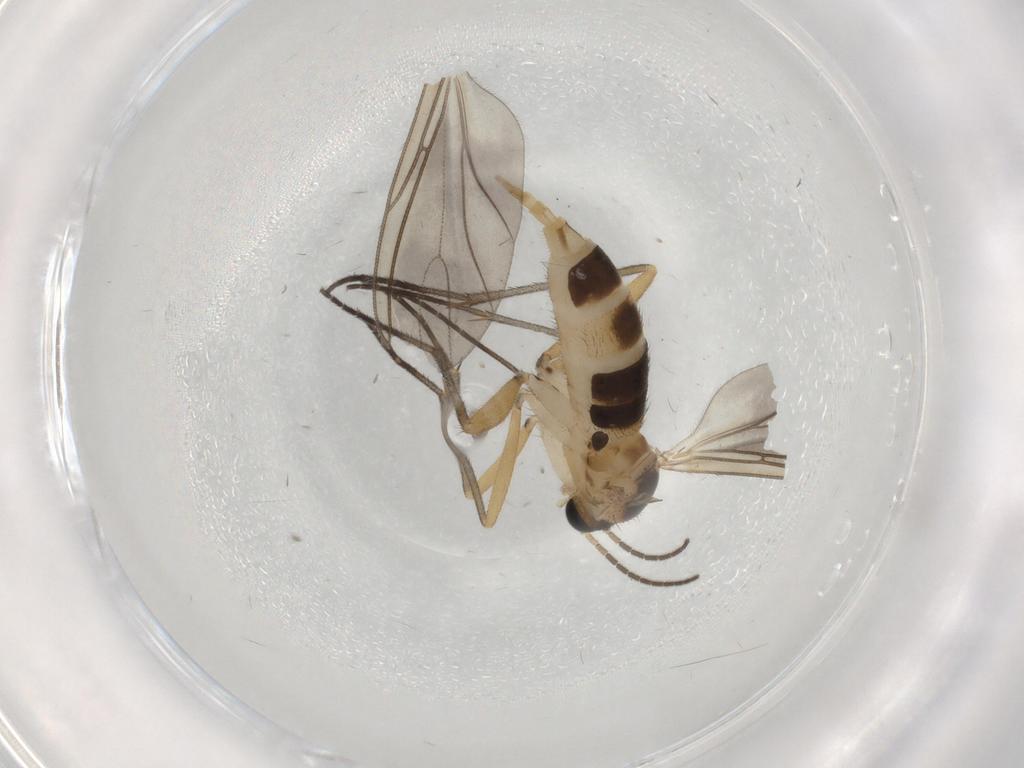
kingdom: Animalia
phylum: Arthropoda
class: Insecta
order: Diptera
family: Sciaridae
